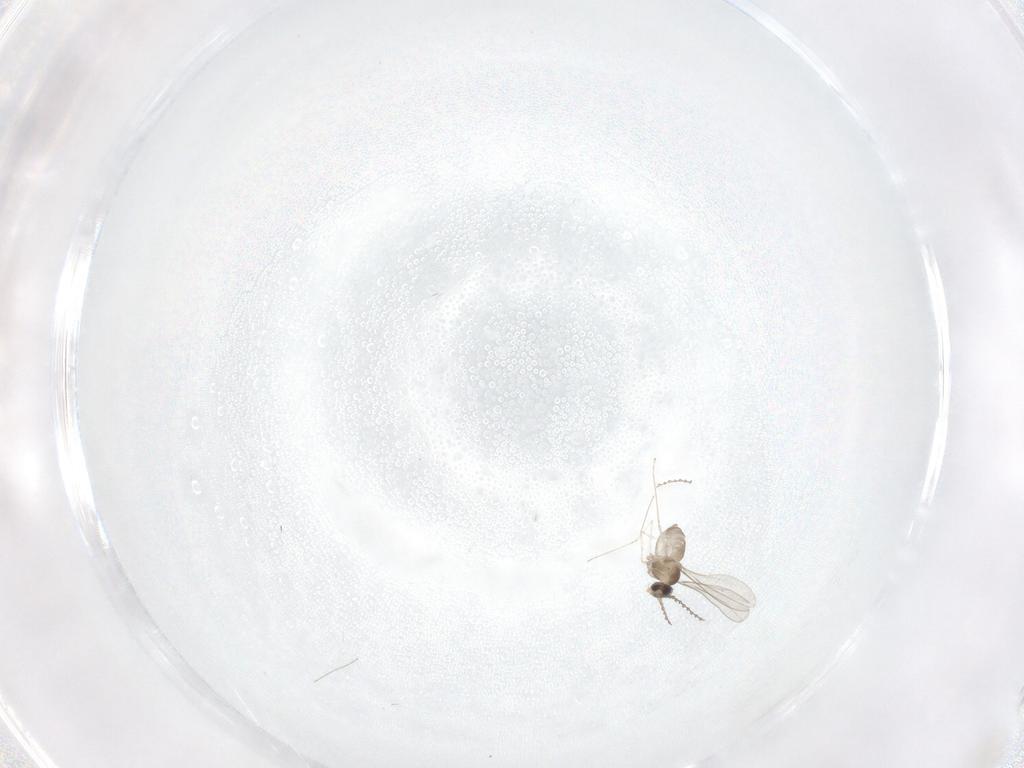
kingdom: Animalia
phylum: Arthropoda
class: Insecta
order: Diptera
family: Cecidomyiidae
